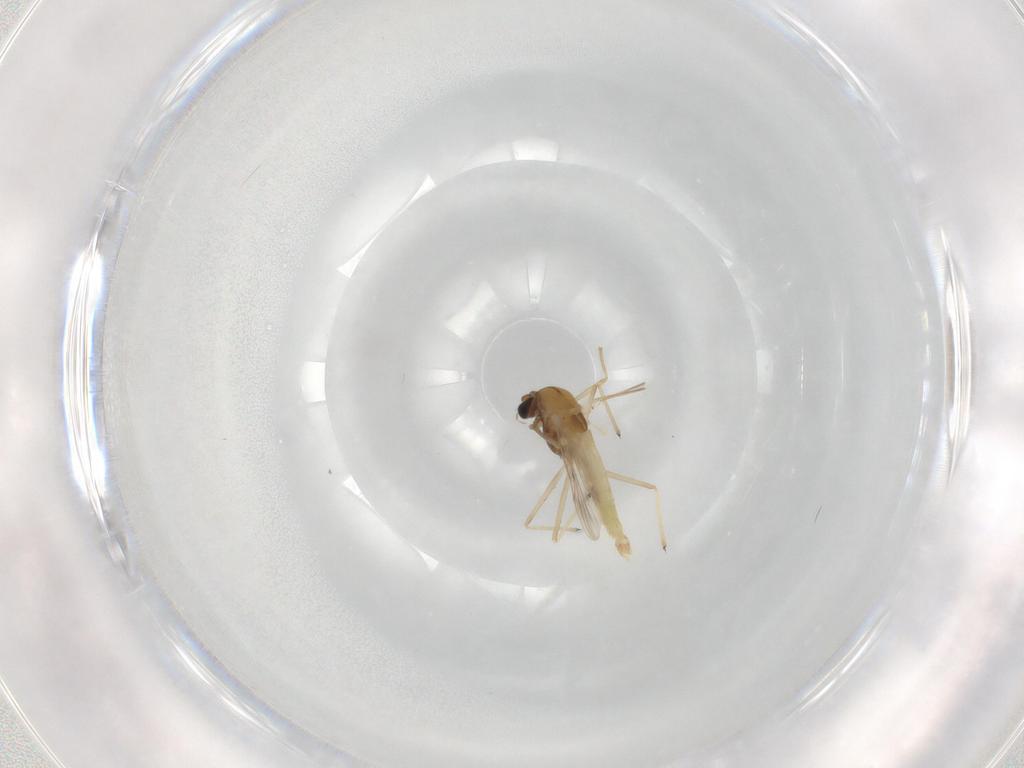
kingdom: Animalia
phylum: Arthropoda
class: Insecta
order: Diptera
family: Chironomidae
